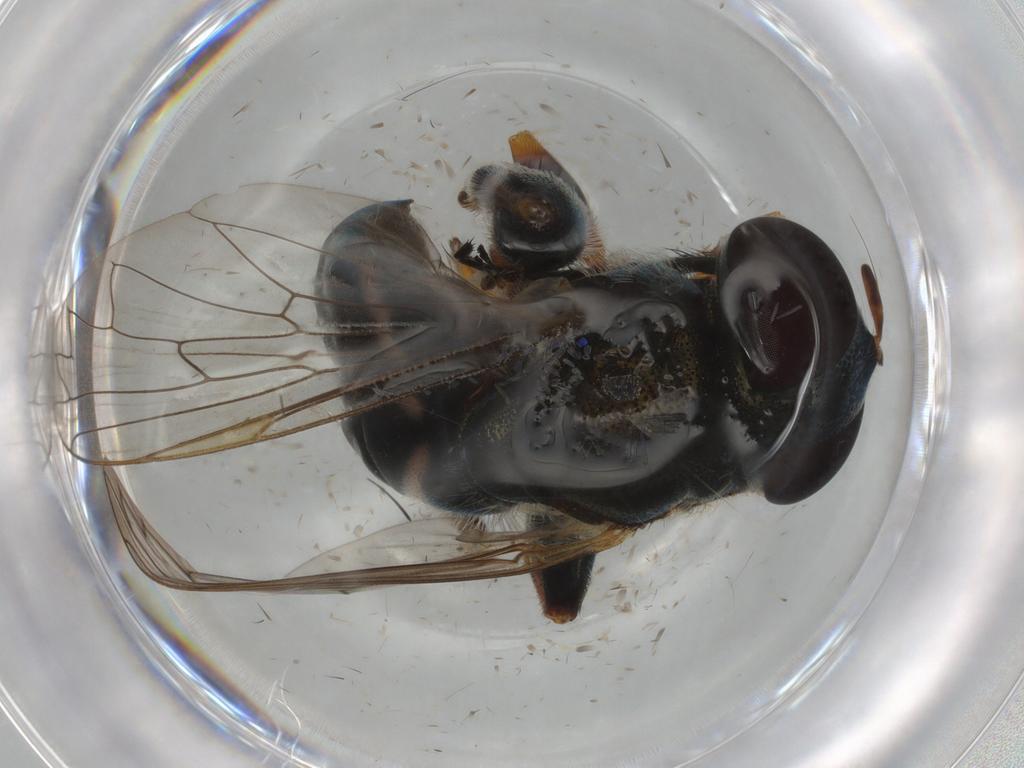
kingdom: Animalia
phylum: Arthropoda
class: Insecta
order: Diptera
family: Syrphidae
